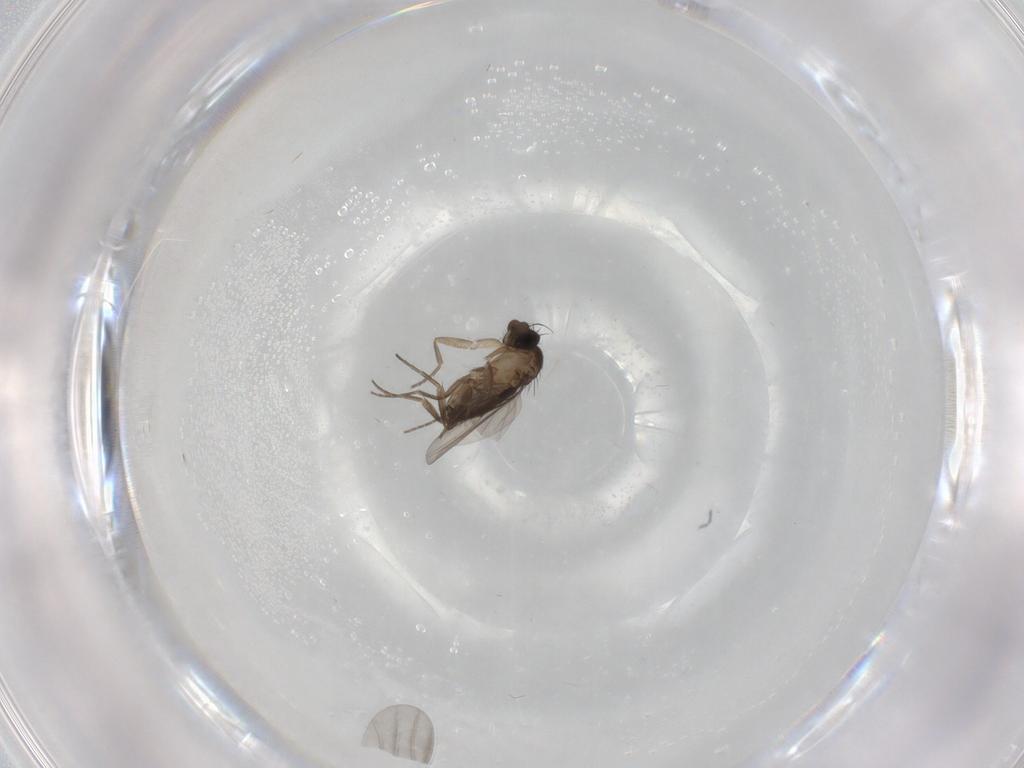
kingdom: Animalia
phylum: Arthropoda
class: Insecta
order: Diptera
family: Phoridae
